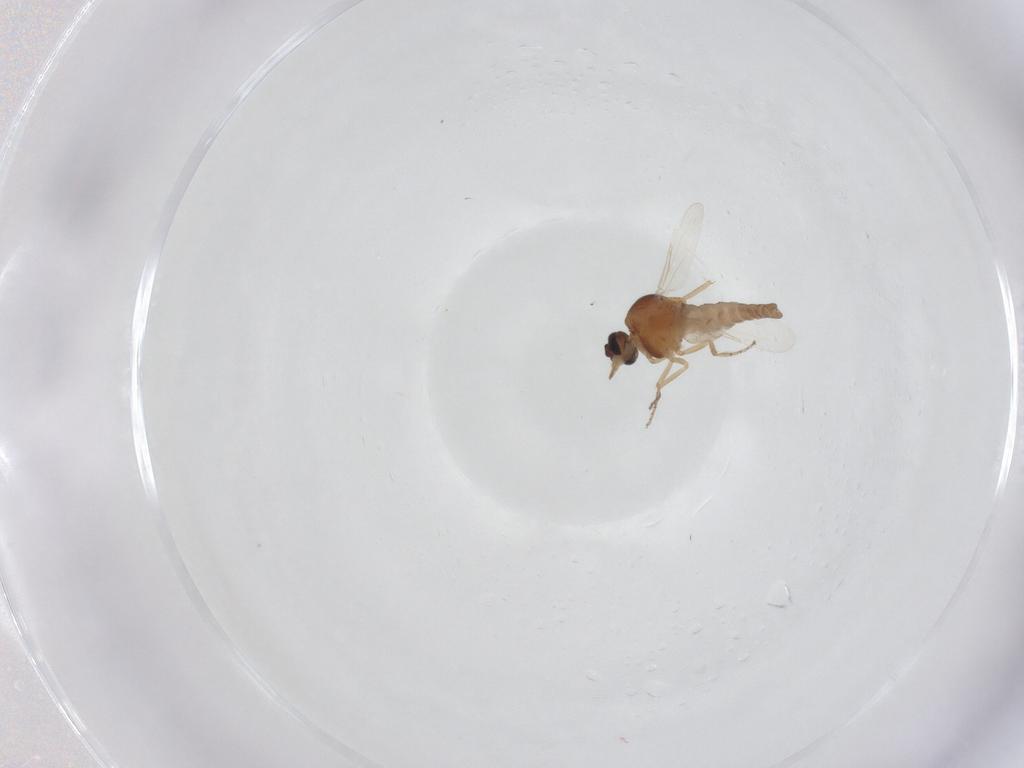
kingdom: Animalia
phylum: Arthropoda
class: Insecta
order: Diptera
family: Ceratopogonidae
